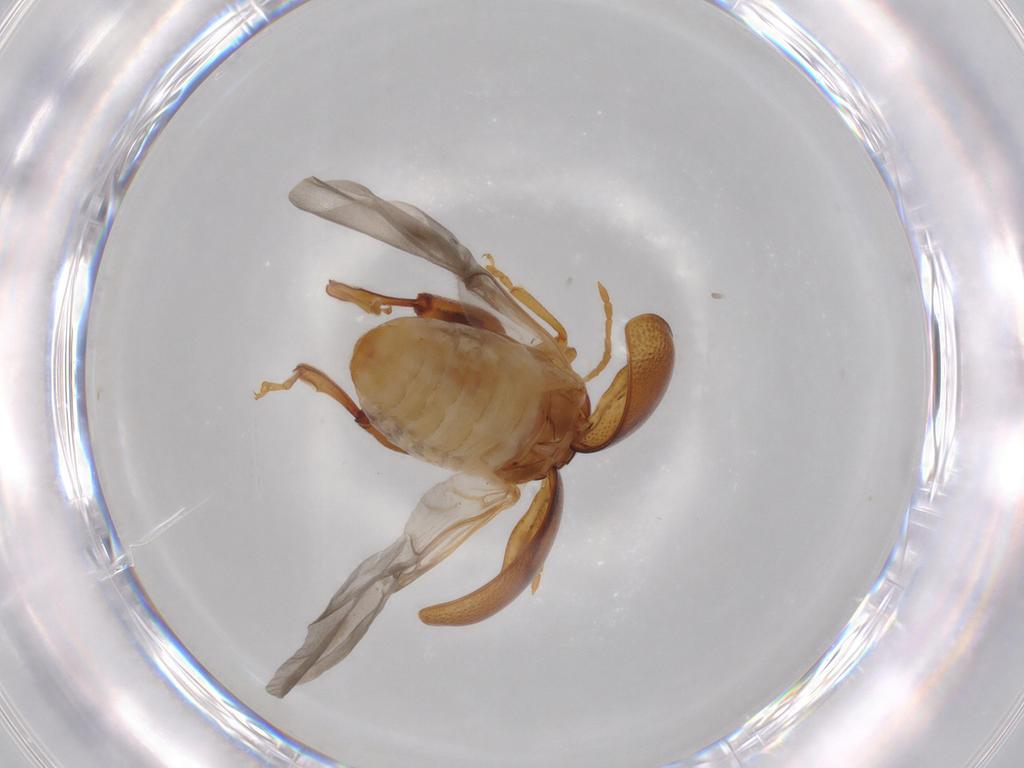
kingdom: Animalia
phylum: Arthropoda
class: Insecta
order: Coleoptera
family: Chrysomelidae
